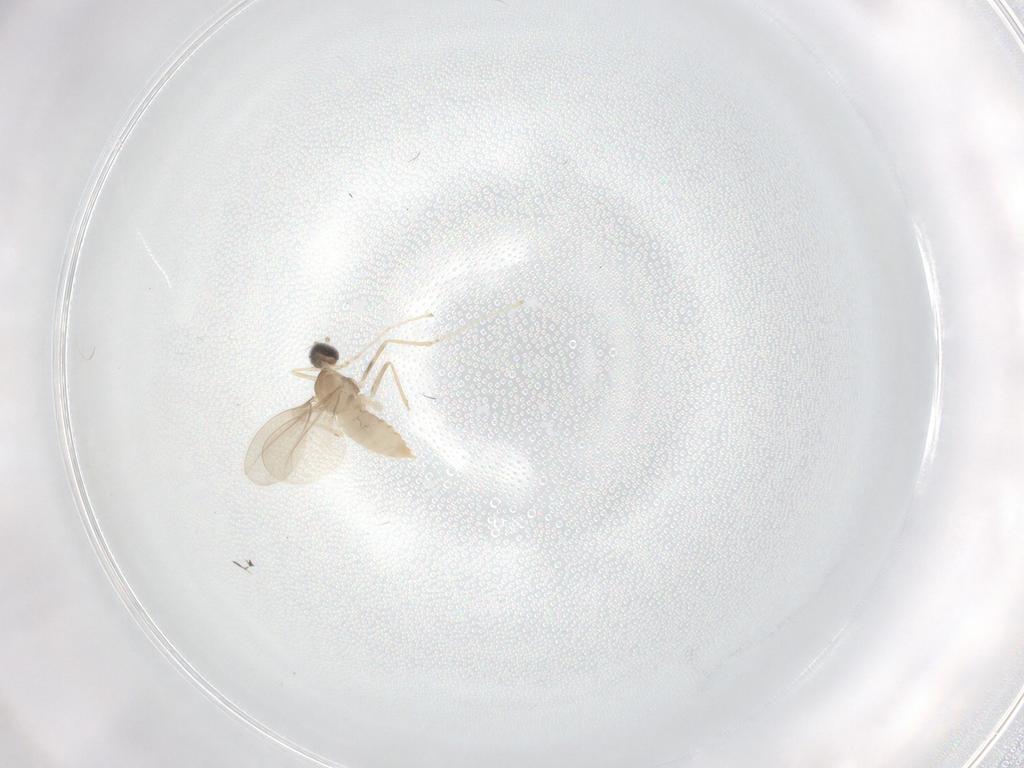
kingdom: Animalia
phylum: Arthropoda
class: Insecta
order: Diptera
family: Cecidomyiidae
